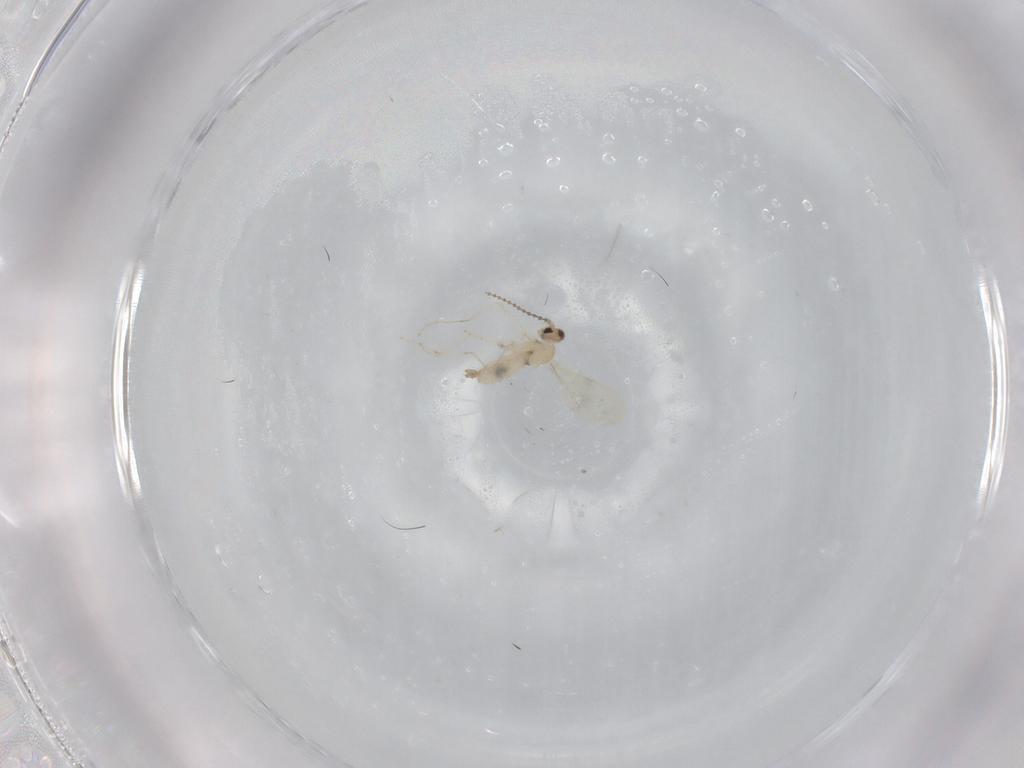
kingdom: Animalia
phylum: Arthropoda
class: Insecta
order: Diptera
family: Cecidomyiidae
